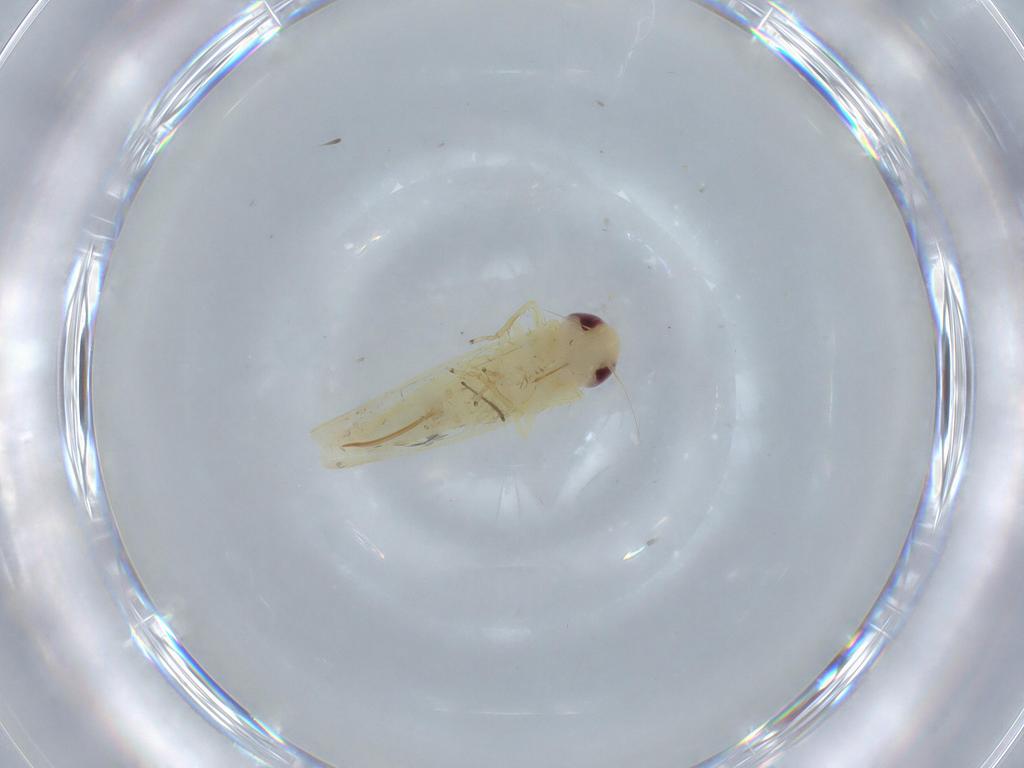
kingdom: Animalia
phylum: Arthropoda
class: Insecta
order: Hemiptera
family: Cicadellidae
